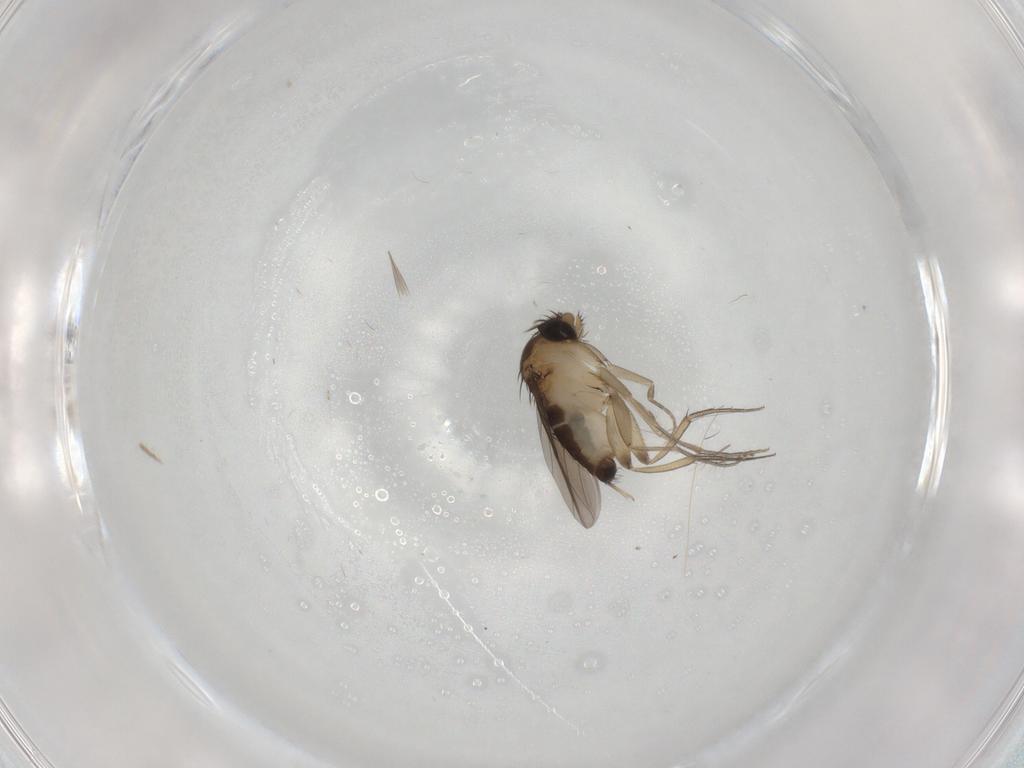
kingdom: Animalia
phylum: Arthropoda
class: Insecta
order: Diptera
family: Phoridae
